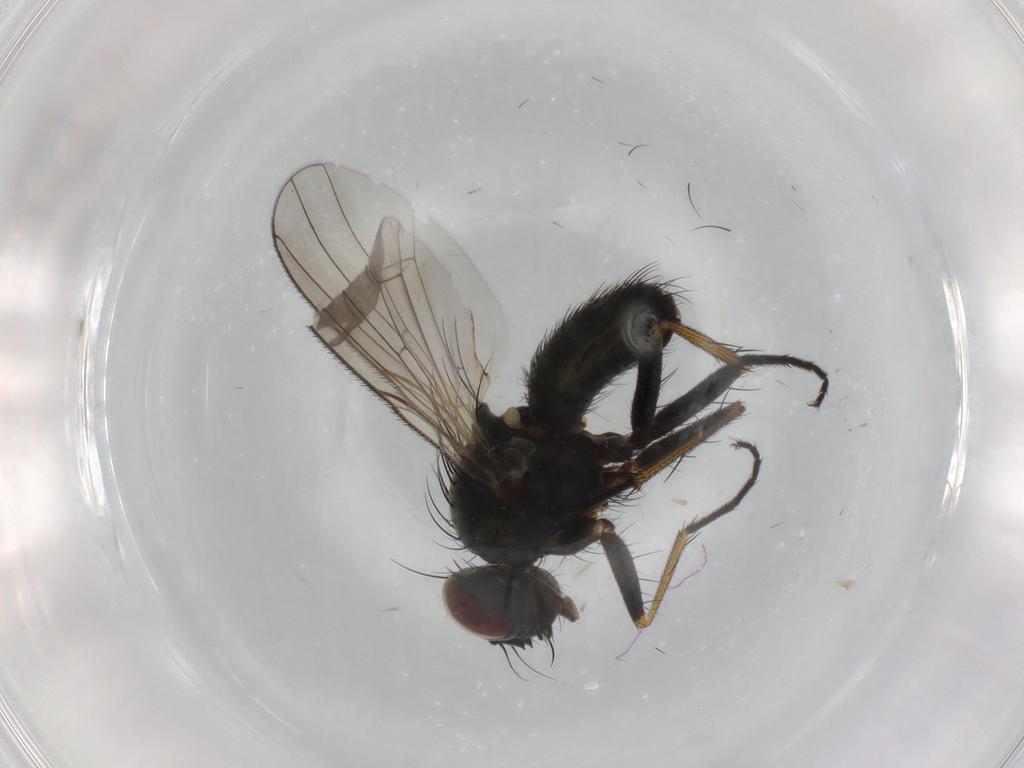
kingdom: Animalia
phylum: Arthropoda
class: Insecta
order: Diptera
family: Muscidae
